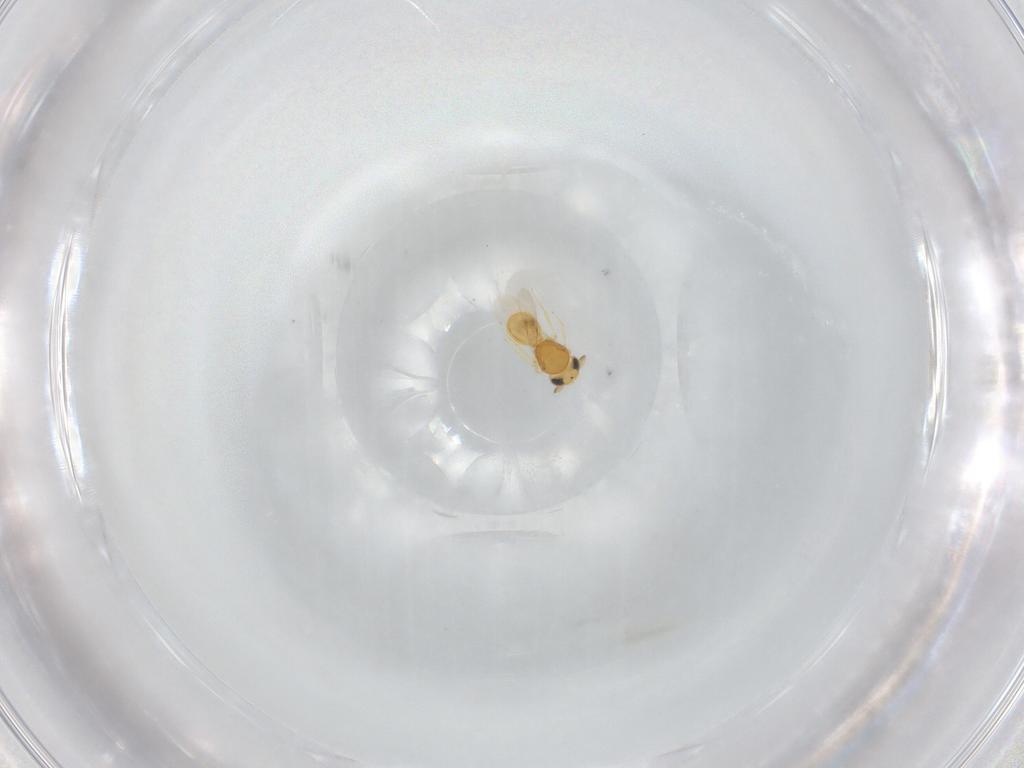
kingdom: Animalia
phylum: Arthropoda
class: Insecta
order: Hymenoptera
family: Scelionidae
